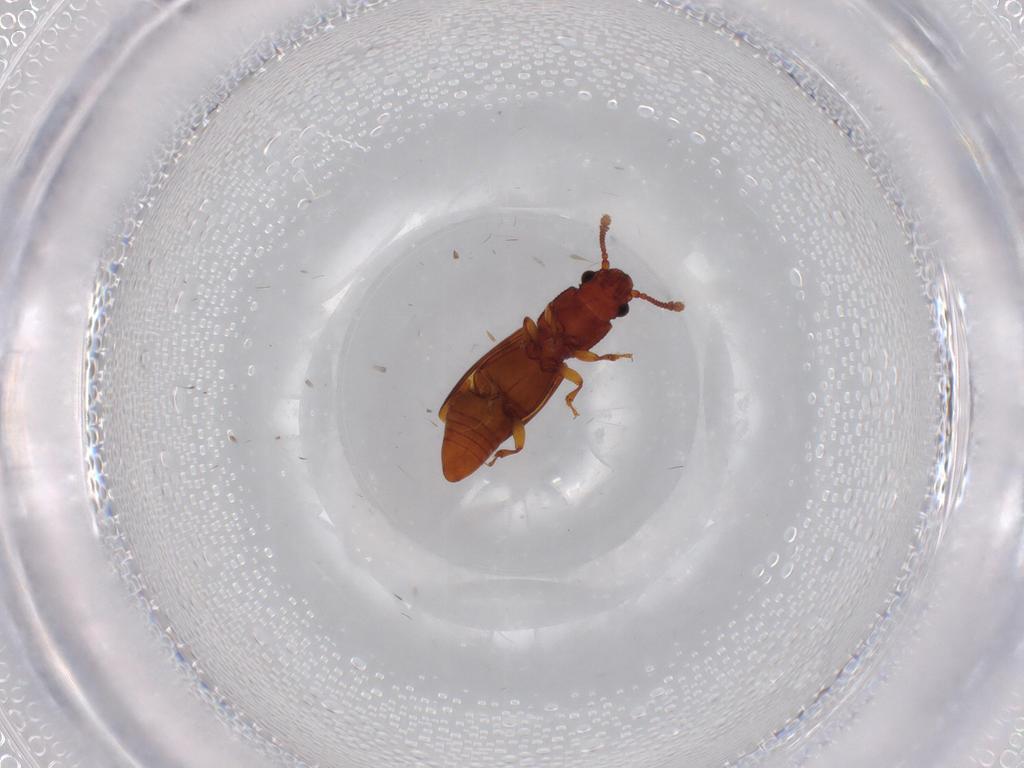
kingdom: Animalia
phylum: Arthropoda
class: Insecta
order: Coleoptera
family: Monotomidae
